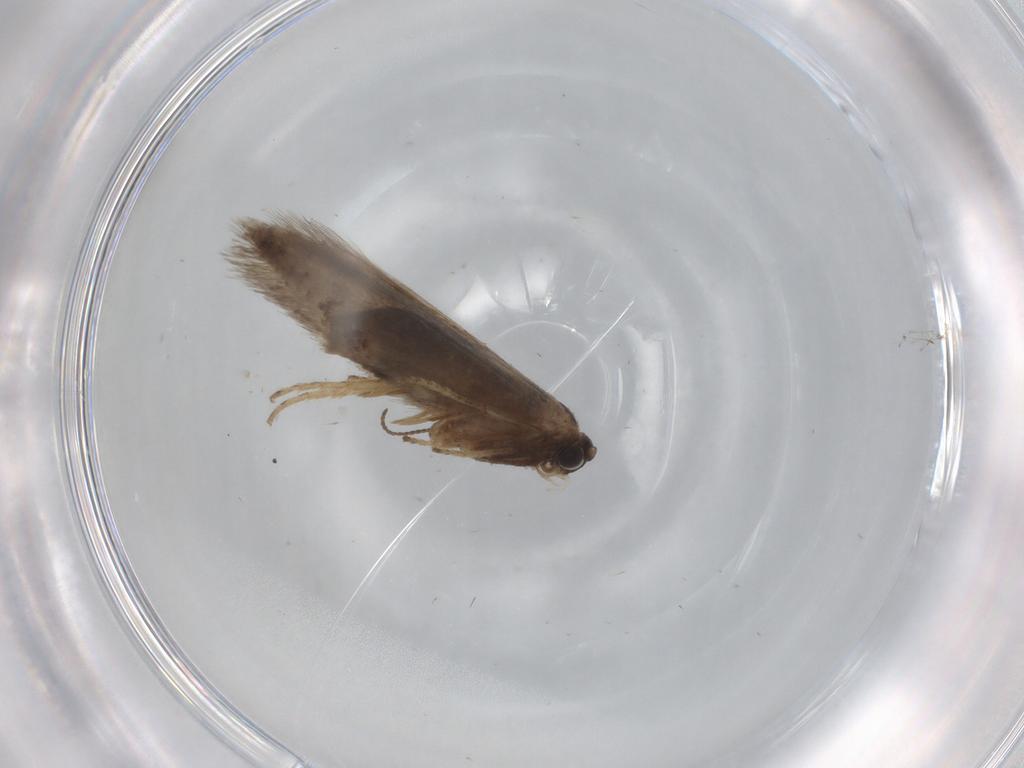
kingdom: Animalia
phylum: Arthropoda
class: Insecta
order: Lepidoptera
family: Nepticulidae
